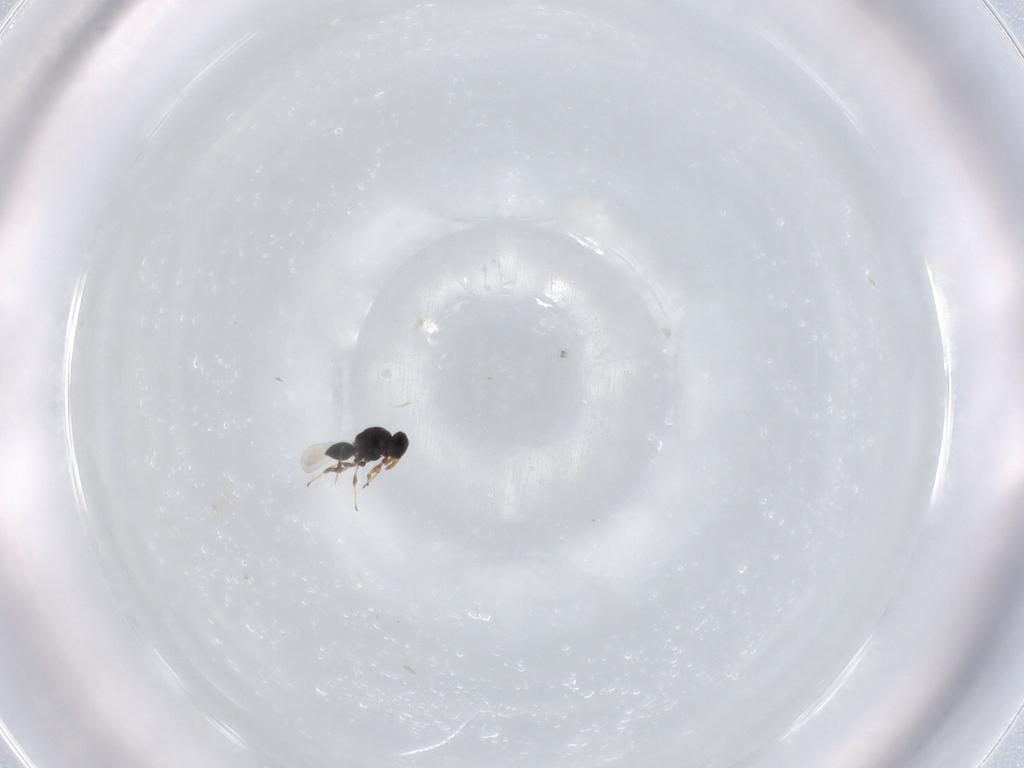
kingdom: Animalia
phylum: Arthropoda
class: Insecta
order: Hymenoptera
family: Platygastridae
